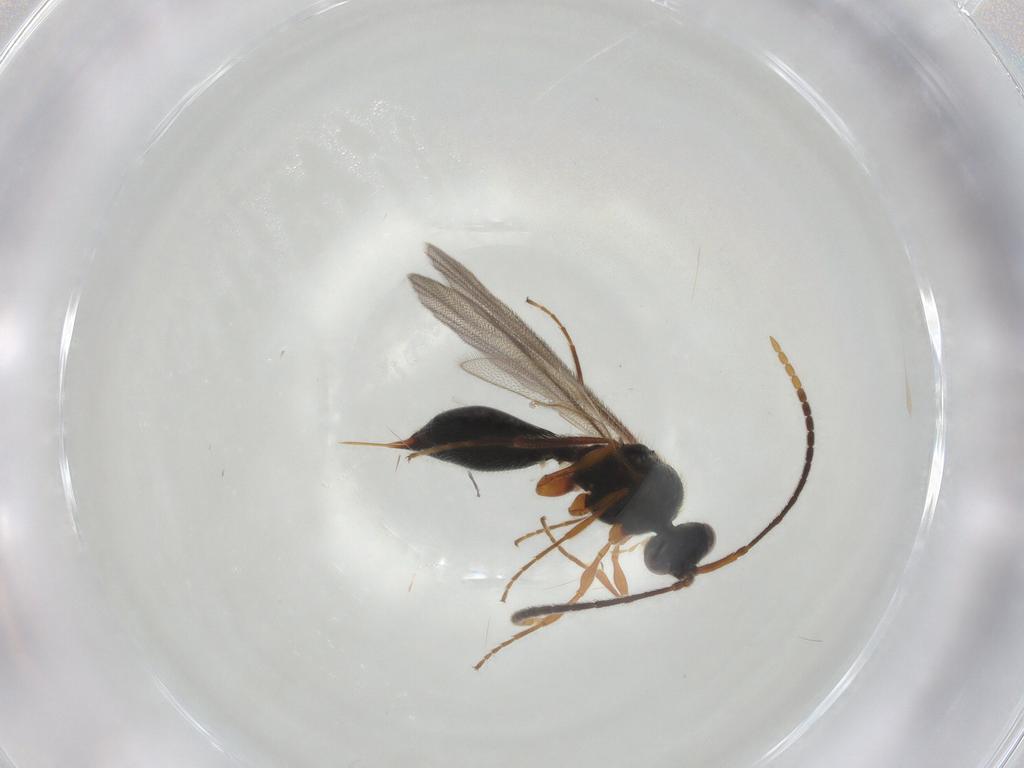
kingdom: Animalia
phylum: Arthropoda
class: Insecta
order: Hymenoptera
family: Diapriidae
